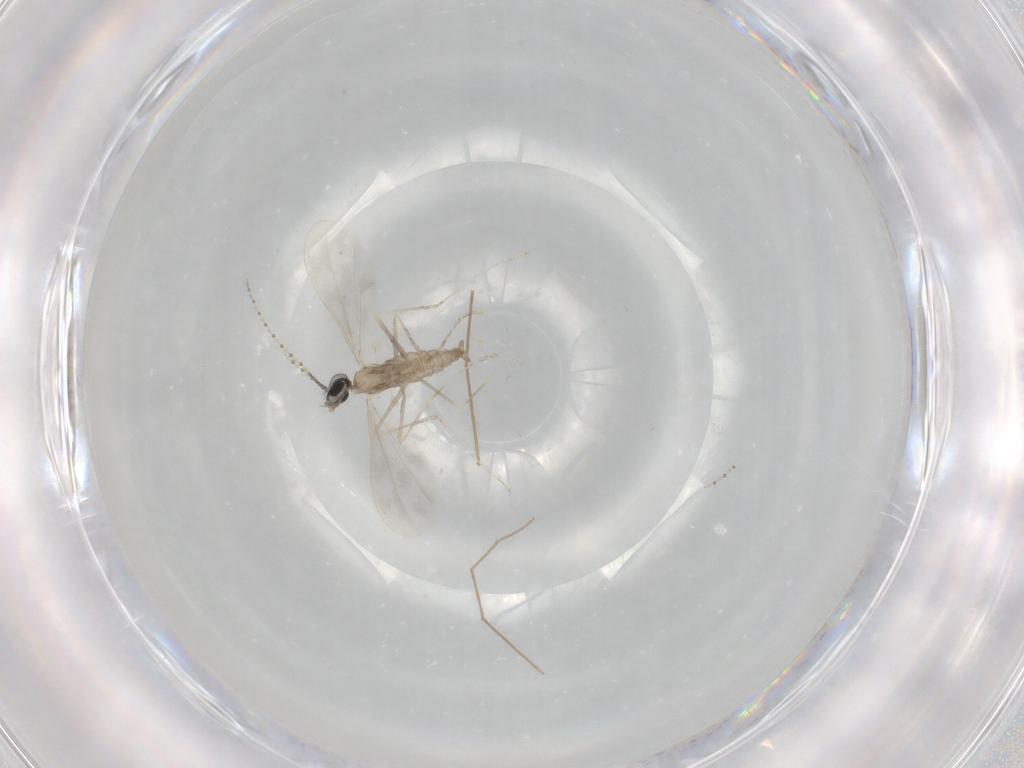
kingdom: Animalia
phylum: Arthropoda
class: Insecta
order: Diptera
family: Cecidomyiidae
